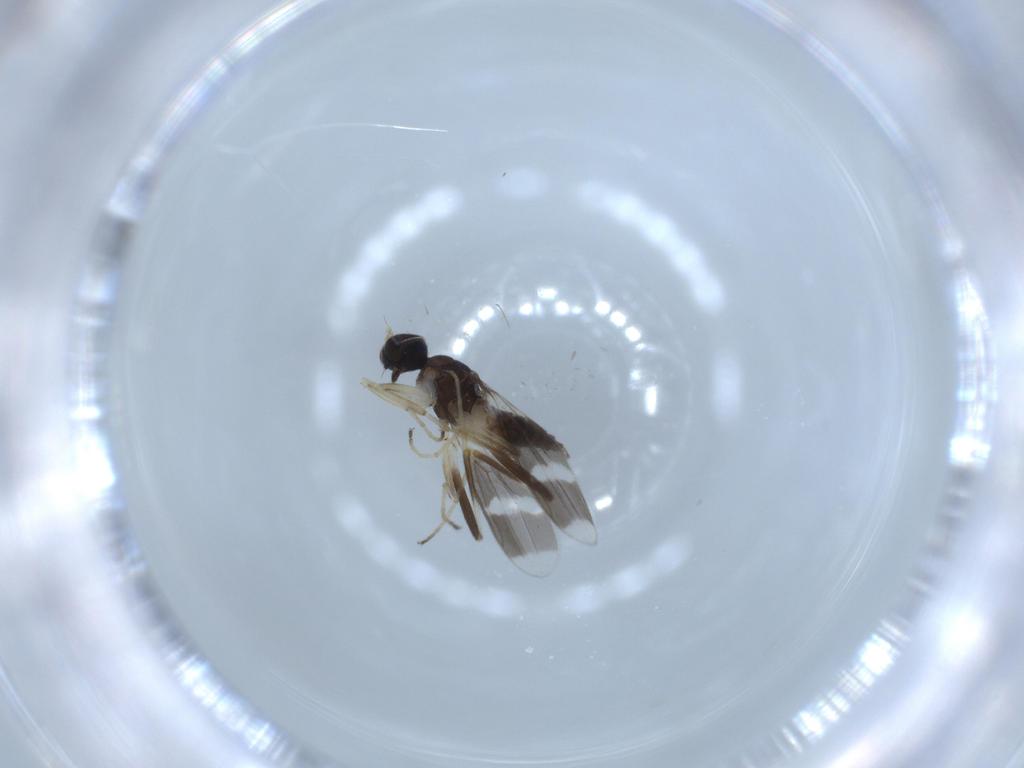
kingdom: Animalia
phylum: Arthropoda
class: Insecta
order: Diptera
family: Hybotidae
